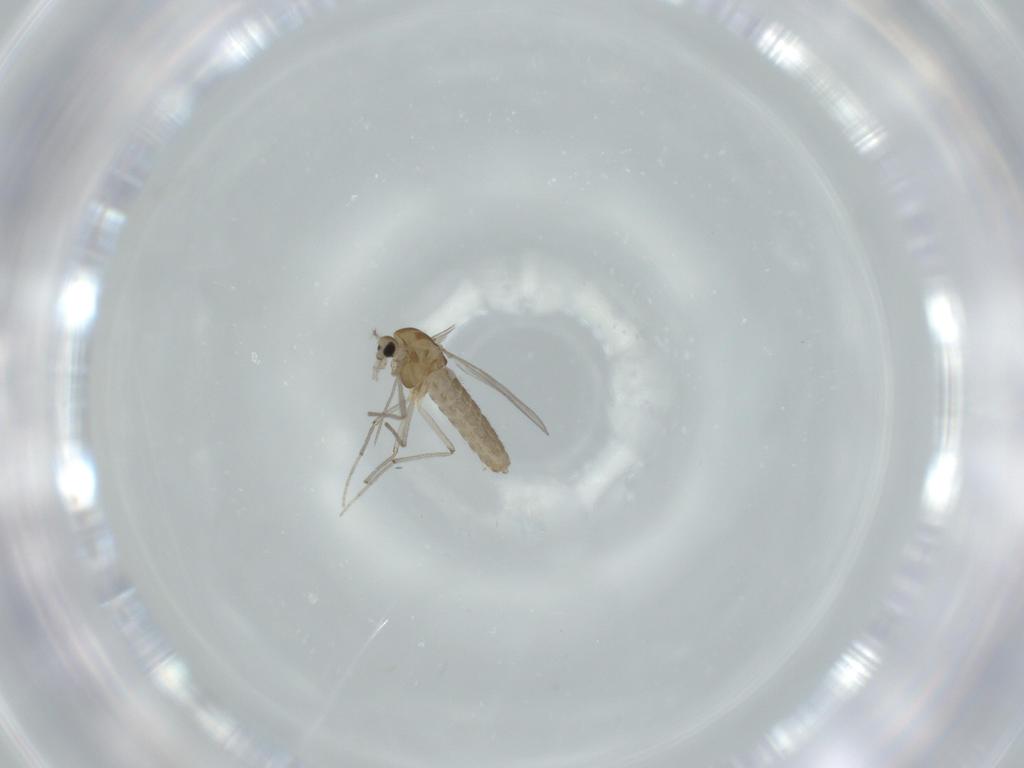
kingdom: Animalia
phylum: Arthropoda
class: Insecta
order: Diptera
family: Chironomidae
